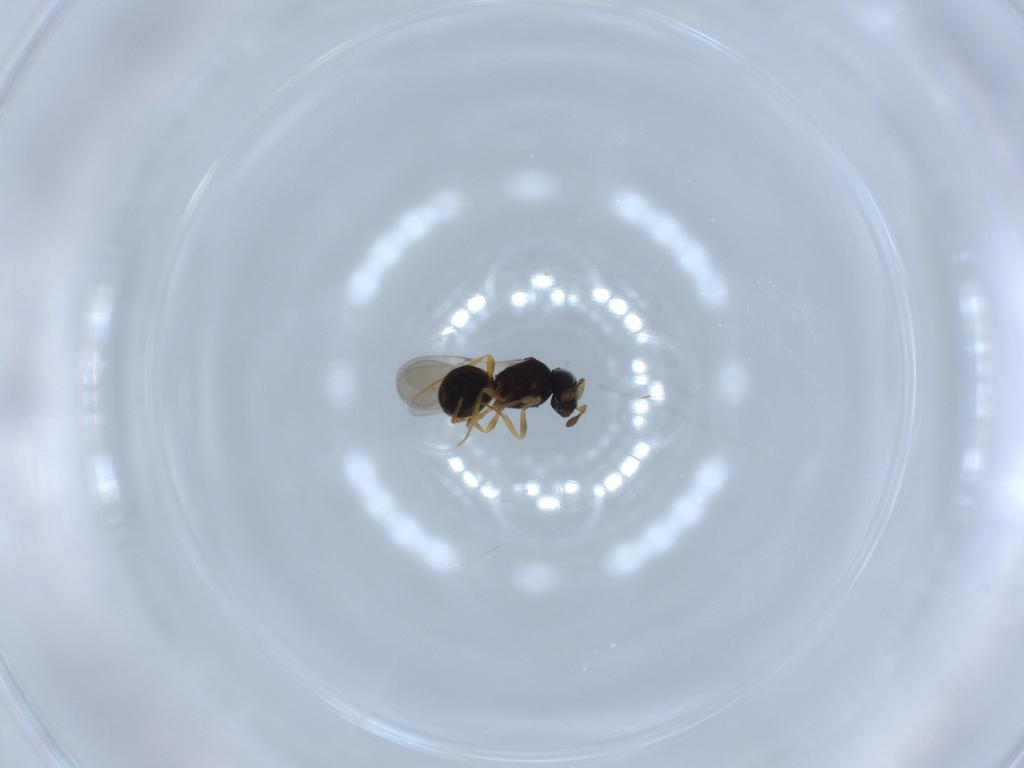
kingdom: Animalia
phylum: Arthropoda
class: Insecta
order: Hymenoptera
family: Scelionidae
